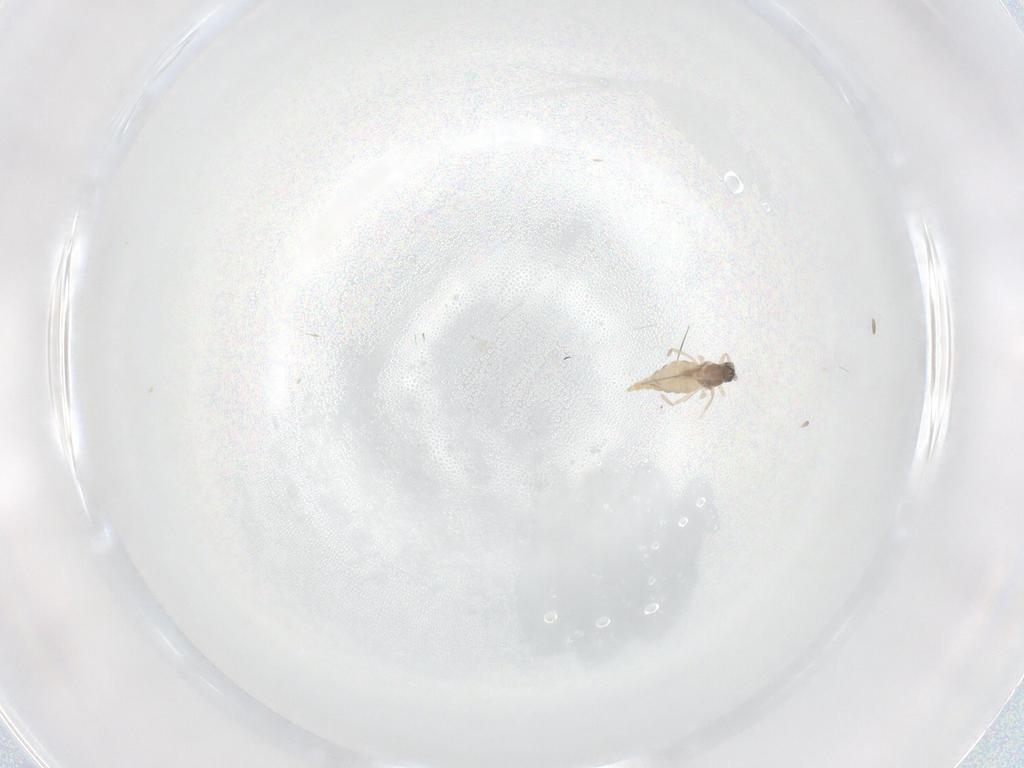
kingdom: Animalia
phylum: Arthropoda
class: Insecta
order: Diptera
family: Cecidomyiidae
